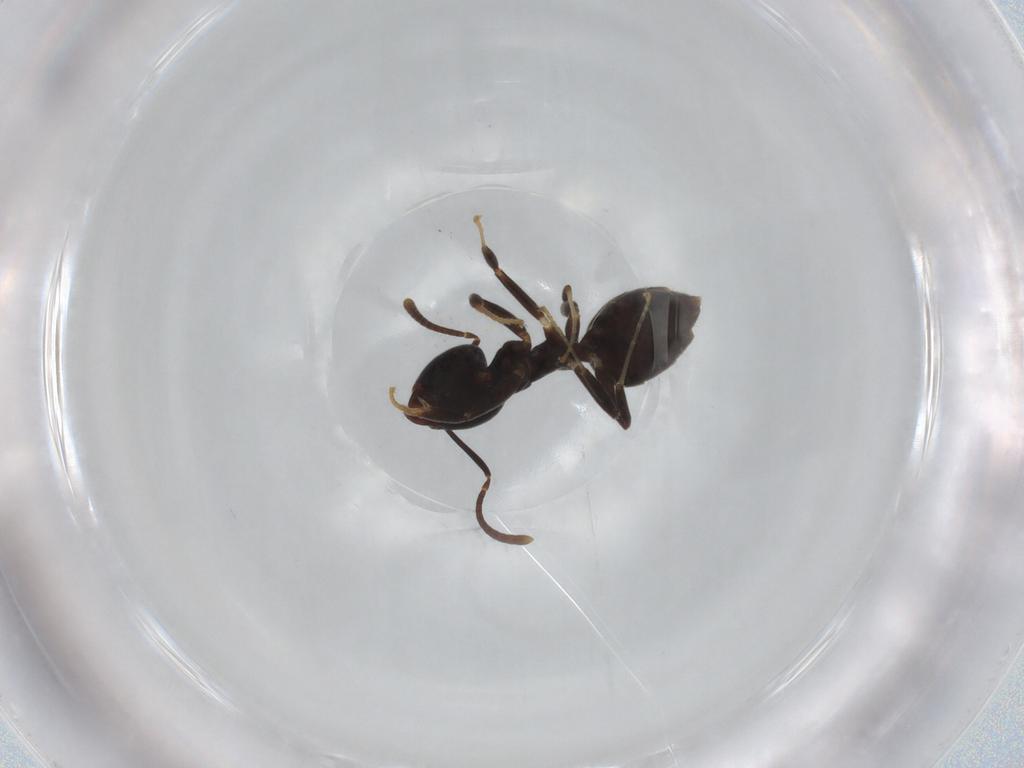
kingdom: Animalia
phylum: Arthropoda
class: Insecta
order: Hymenoptera
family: Formicidae
